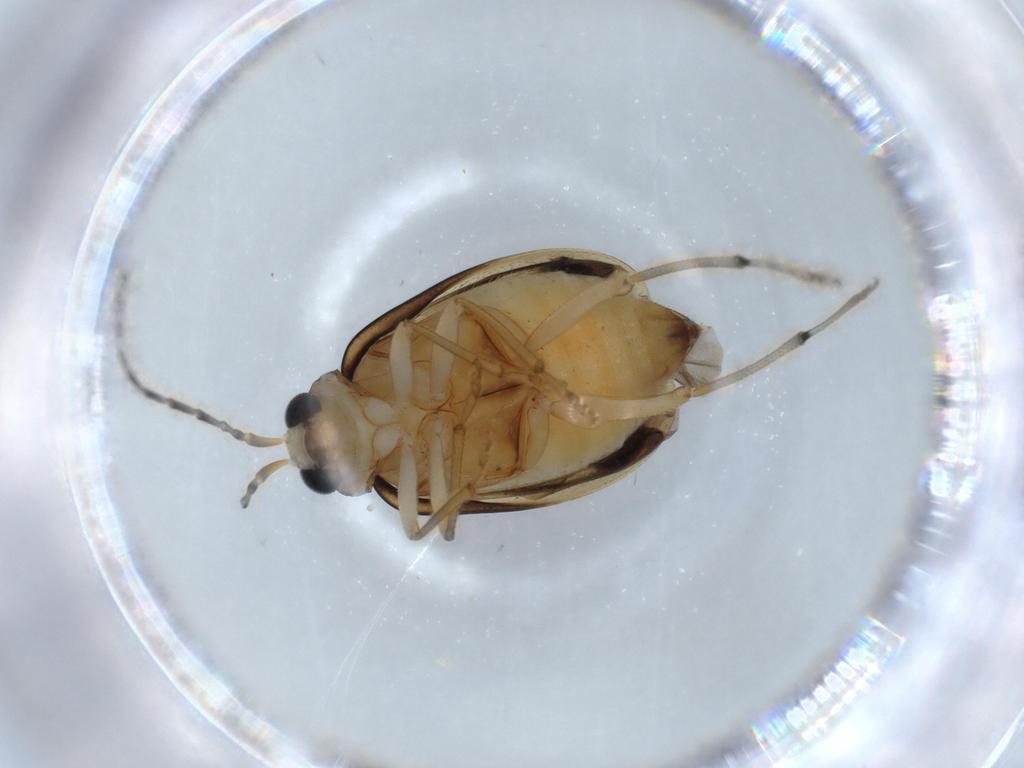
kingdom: Animalia
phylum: Arthropoda
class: Insecta
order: Coleoptera
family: Chrysomelidae
